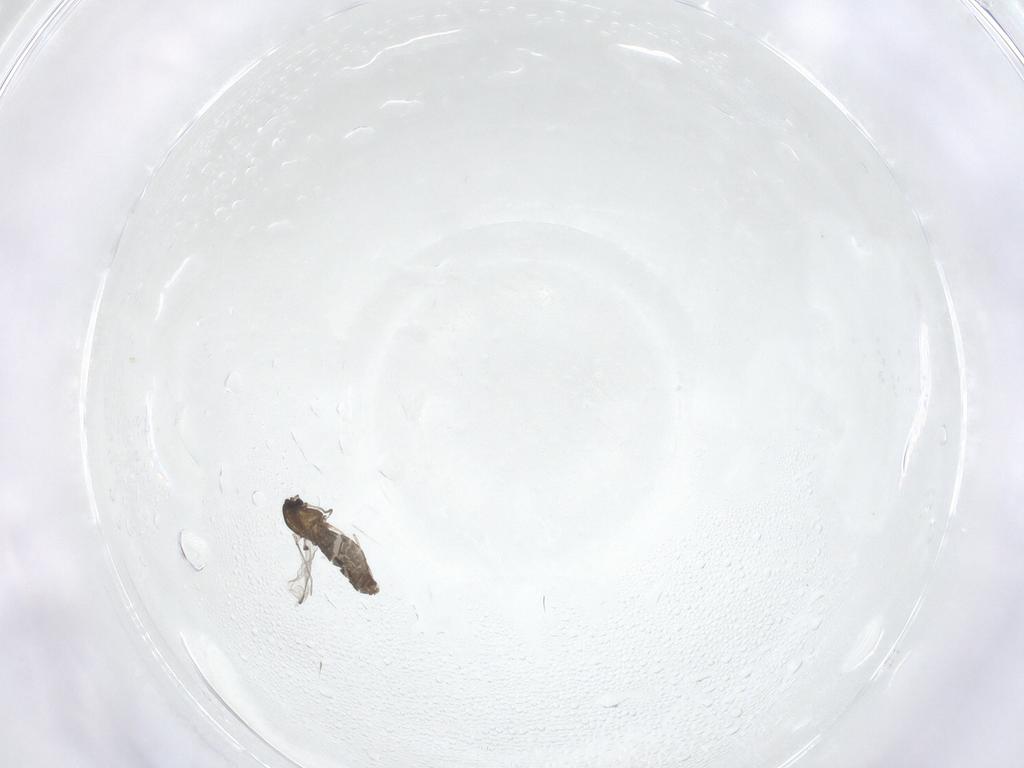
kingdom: Animalia
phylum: Arthropoda
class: Insecta
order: Diptera
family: Chironomidae
